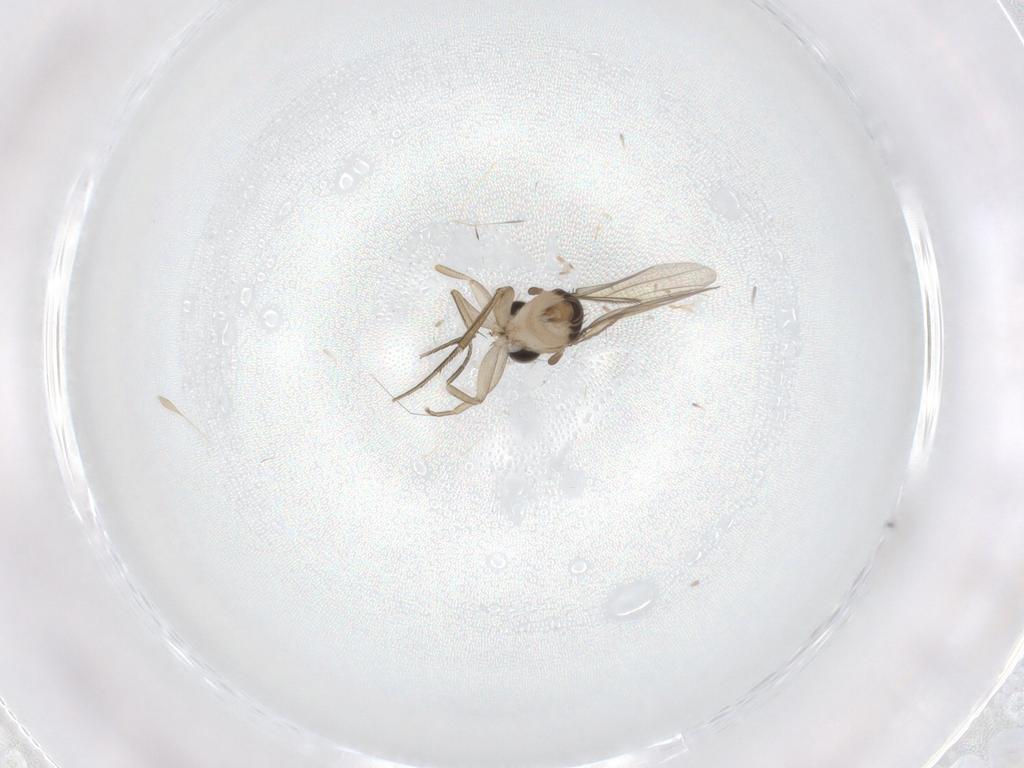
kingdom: Animalia
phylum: Arthropoda
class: Insecta
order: Diptera
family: Phoridae
